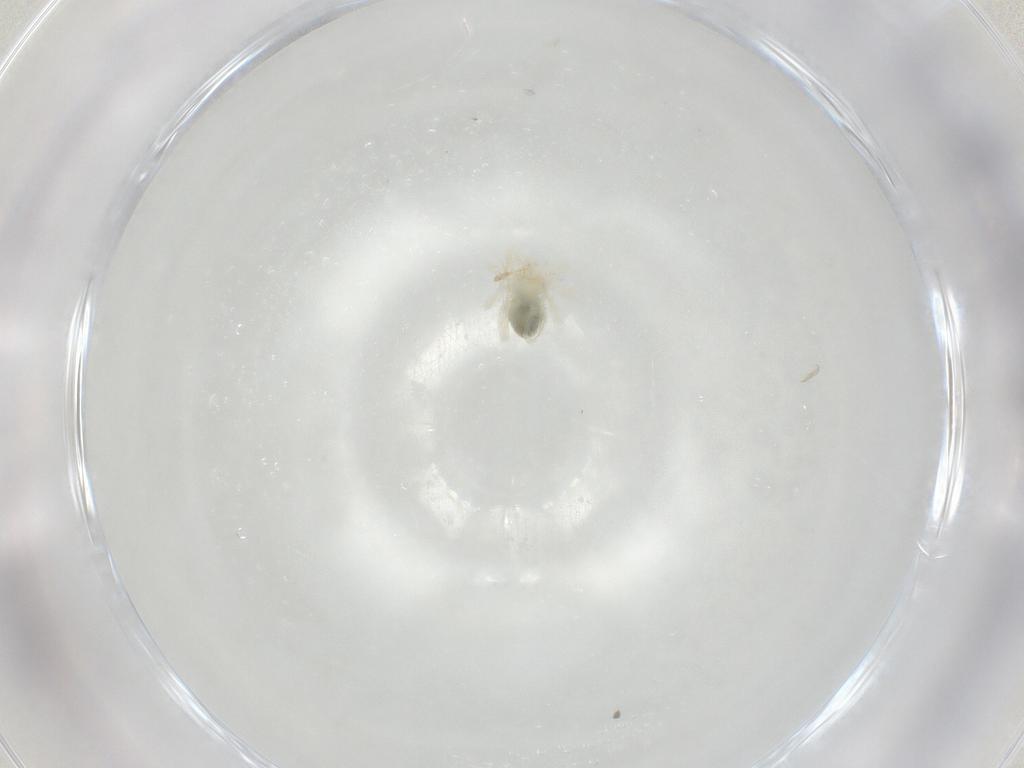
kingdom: Animalia
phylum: Arthropoda
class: Arachnida
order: Trombidiformes
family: Anystidae
